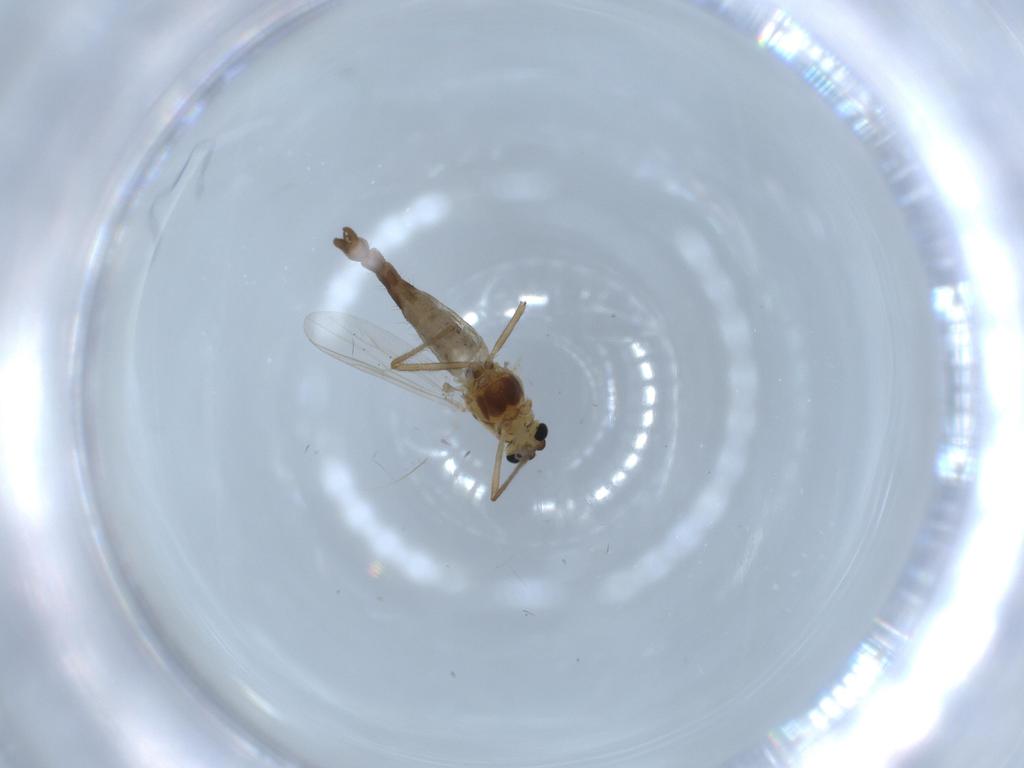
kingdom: Animalia
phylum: Arthropoda
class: Insecta
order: Diptera
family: Chironomidae
